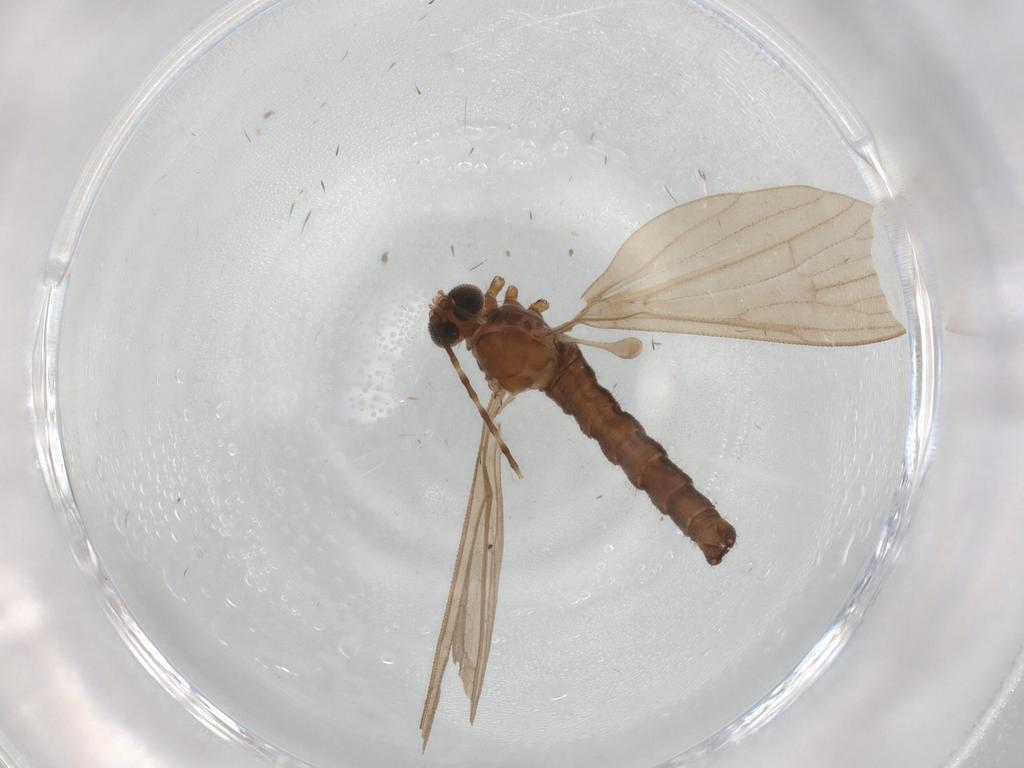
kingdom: Animalia
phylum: Arthropoda
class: Insecta
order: Diptera
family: Limoniidae
